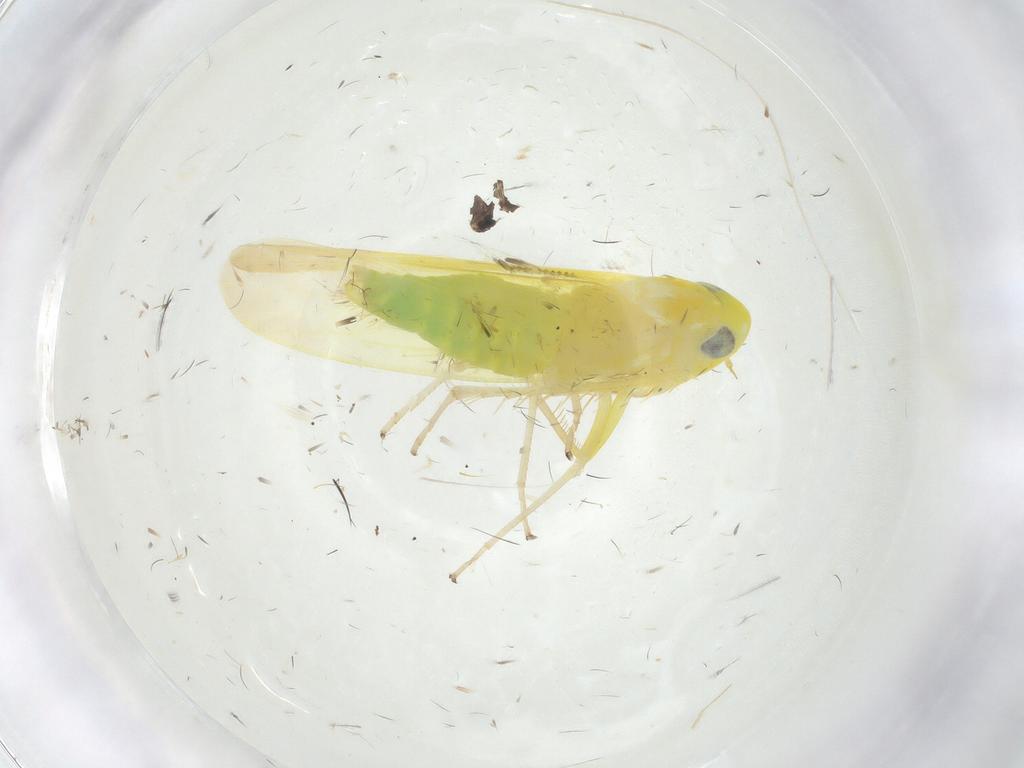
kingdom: Animalia
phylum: Arthropoda
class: Insecta
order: Hemiptera
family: Cicadellidae
